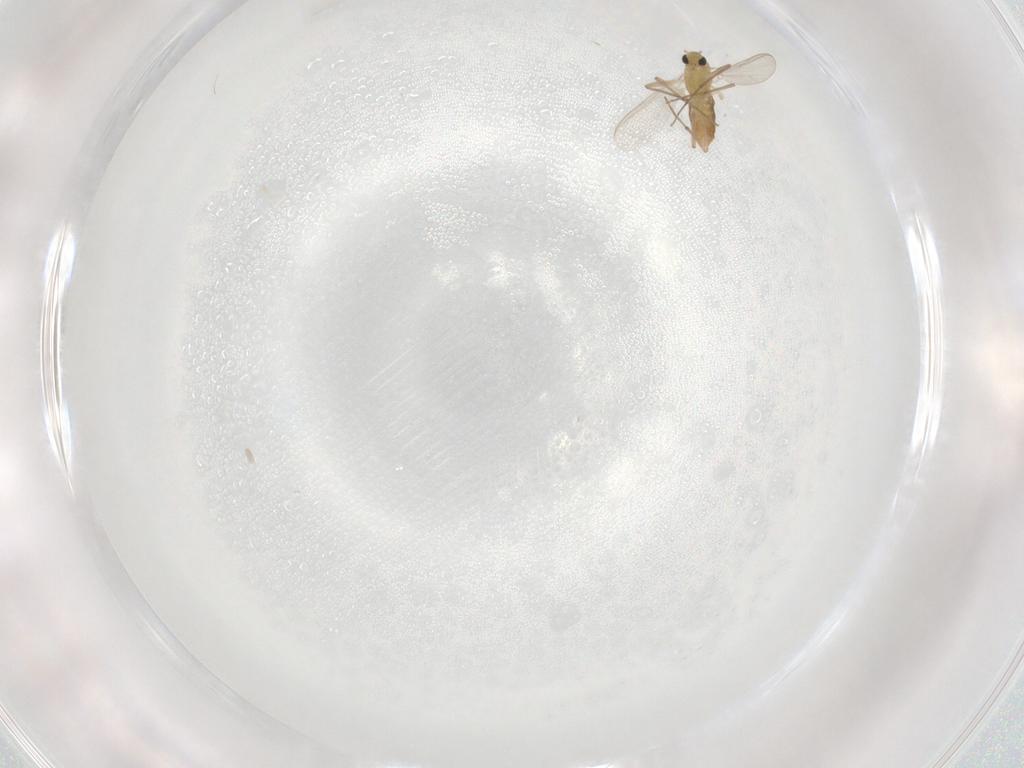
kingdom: Animalia
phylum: Arthropoda
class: Insecta
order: Diptera
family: Chironomidae
